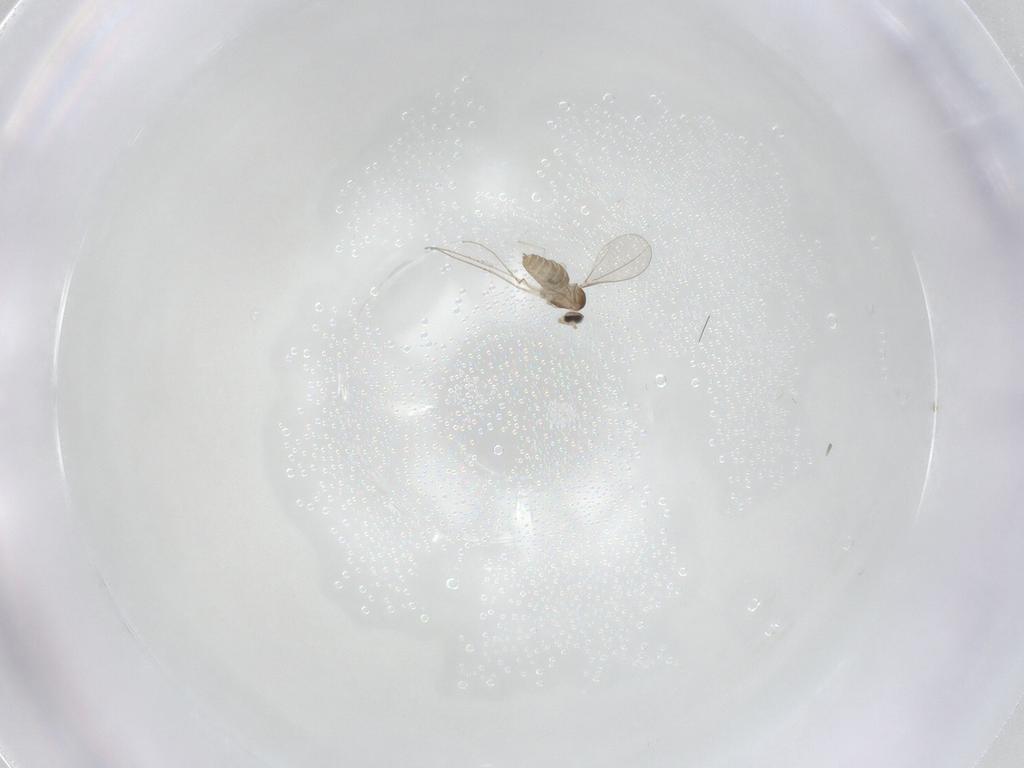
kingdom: Animalia
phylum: Arthropoda
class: Insecta
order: Diptera
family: Cecidomyiidae
